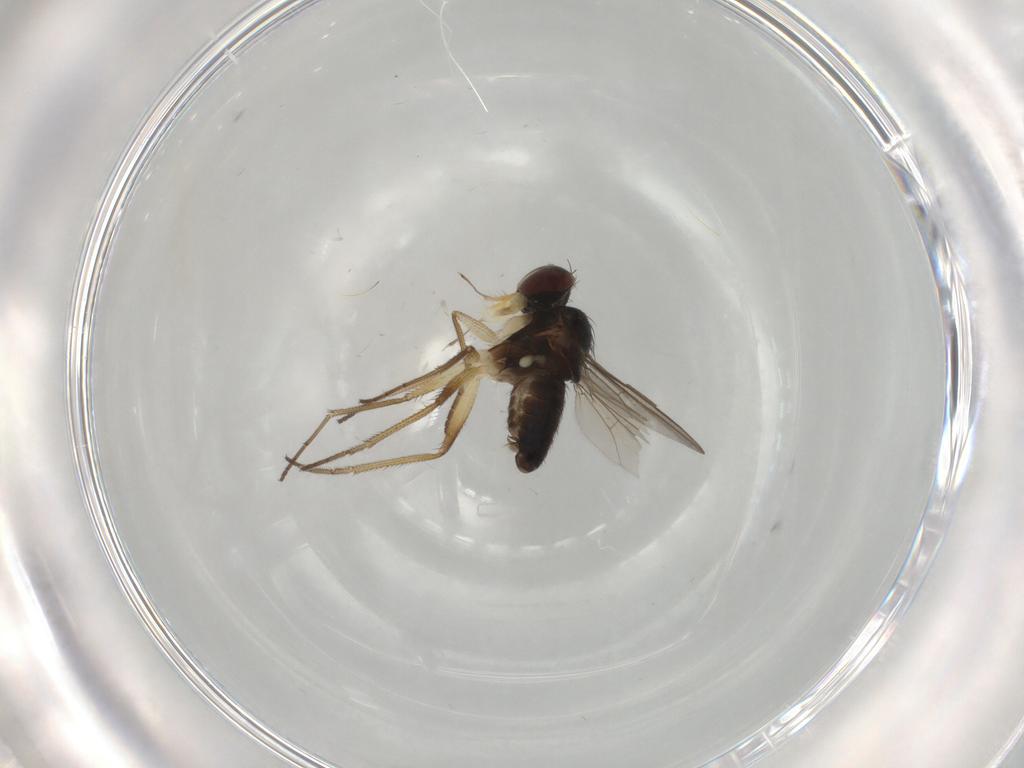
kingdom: Animalia
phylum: Arthropoda
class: Insecta
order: Diptera
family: Dolichopodidae
